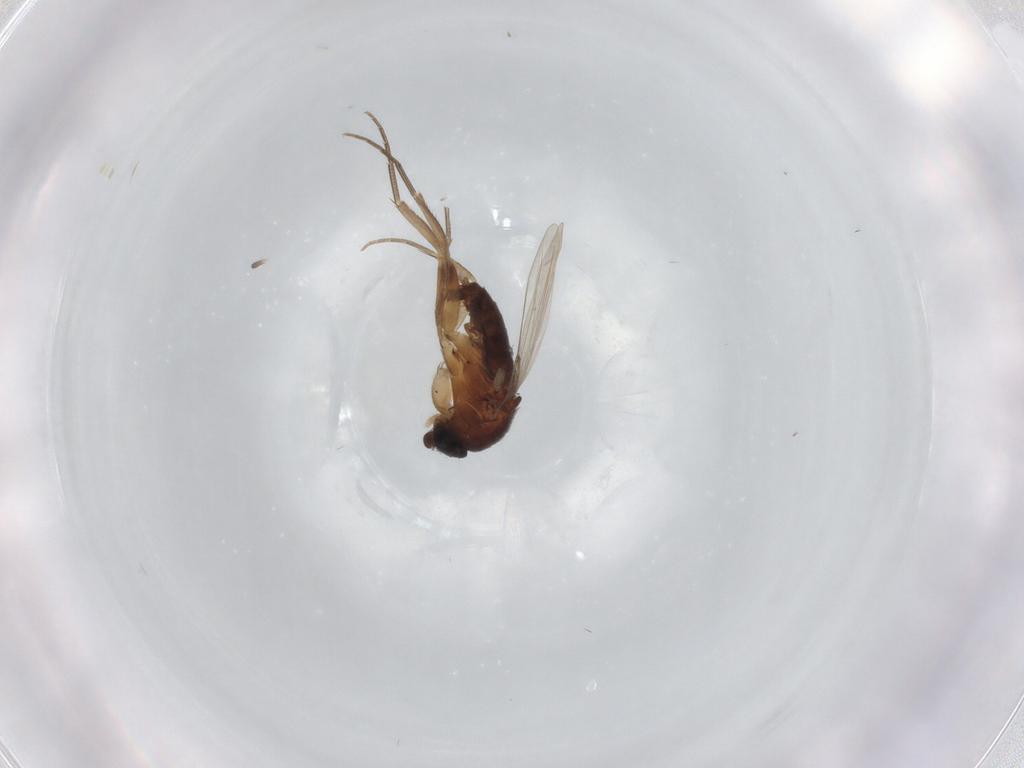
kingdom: Animalia
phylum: Arthropoda
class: Insecta
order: Diptera
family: Phoridae
